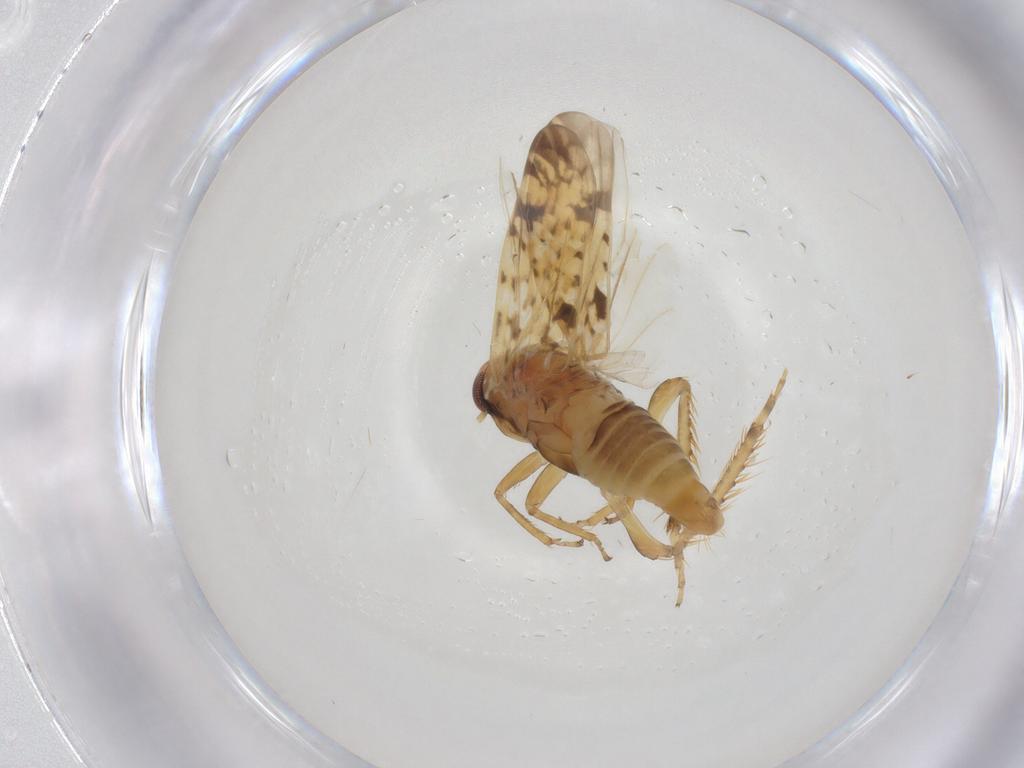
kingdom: Animalia
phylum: Arthropoda
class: Insecta
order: Hemiptera
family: Cicadellidae
